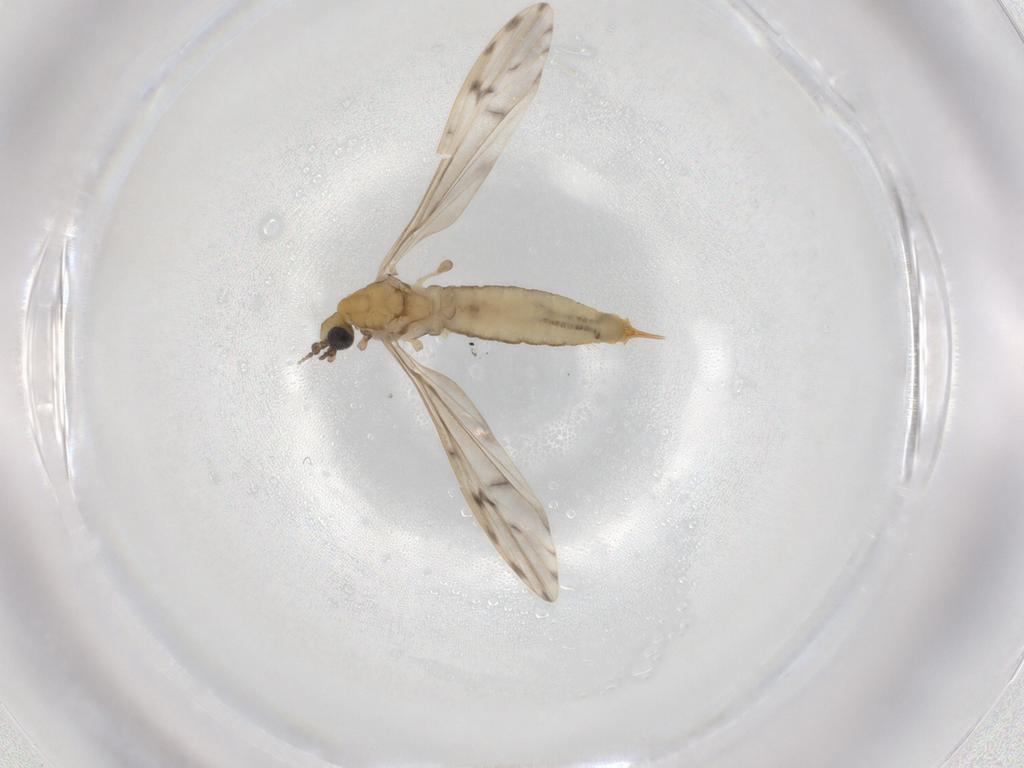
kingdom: Animalia
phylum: Arthropoda
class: Insecta
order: Diptera
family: Limoniidae
